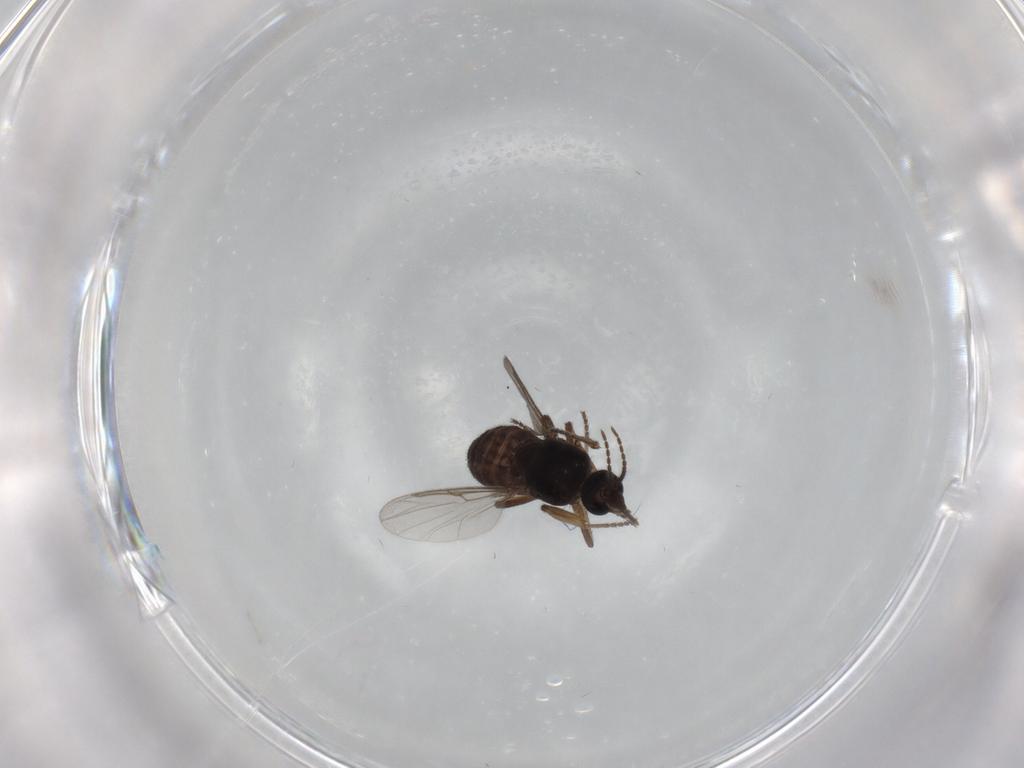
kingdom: Animalia
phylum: Arthropoda
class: Insecta
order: Diptera
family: Ceratopogonidae
